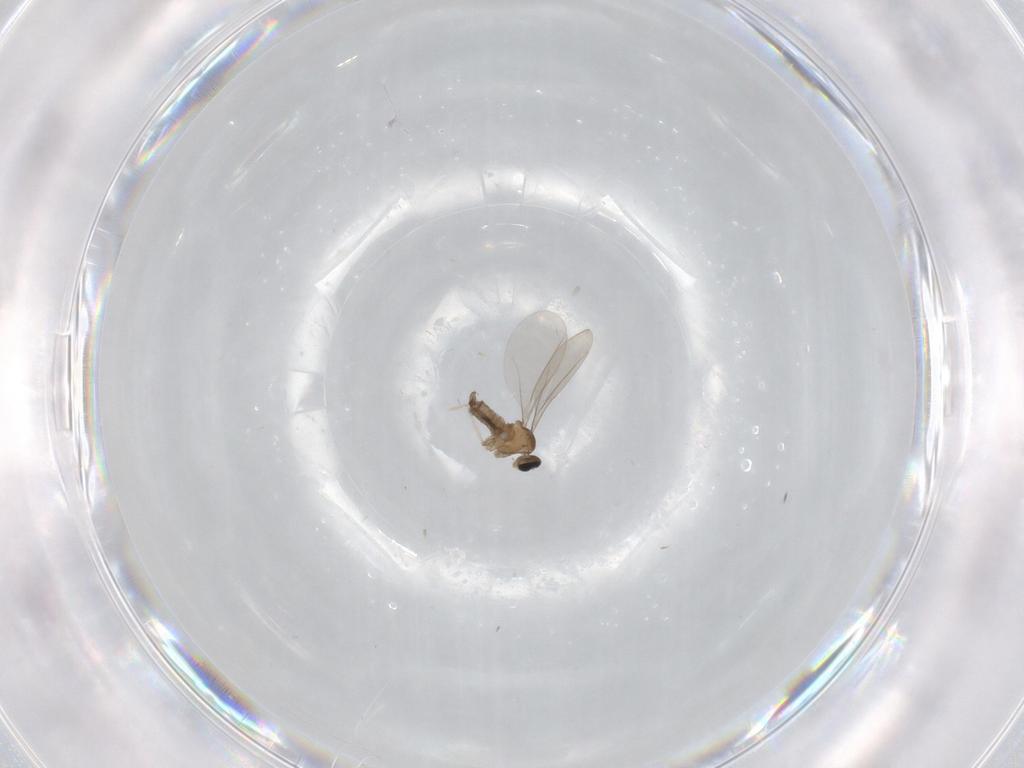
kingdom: Animalia
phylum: Arthropoda
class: Insecta
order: Diptera
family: Cecidomyiidae
